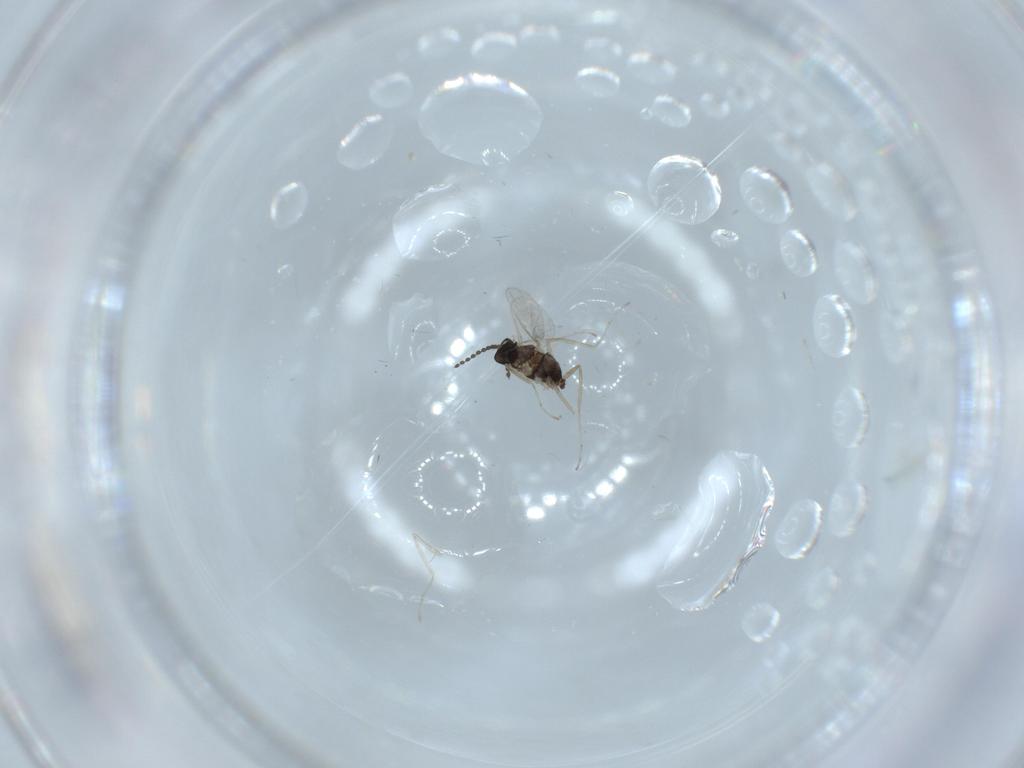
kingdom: Animalia
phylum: Arthropoda
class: Insecta
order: Diptera
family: Cecidomyiidae
